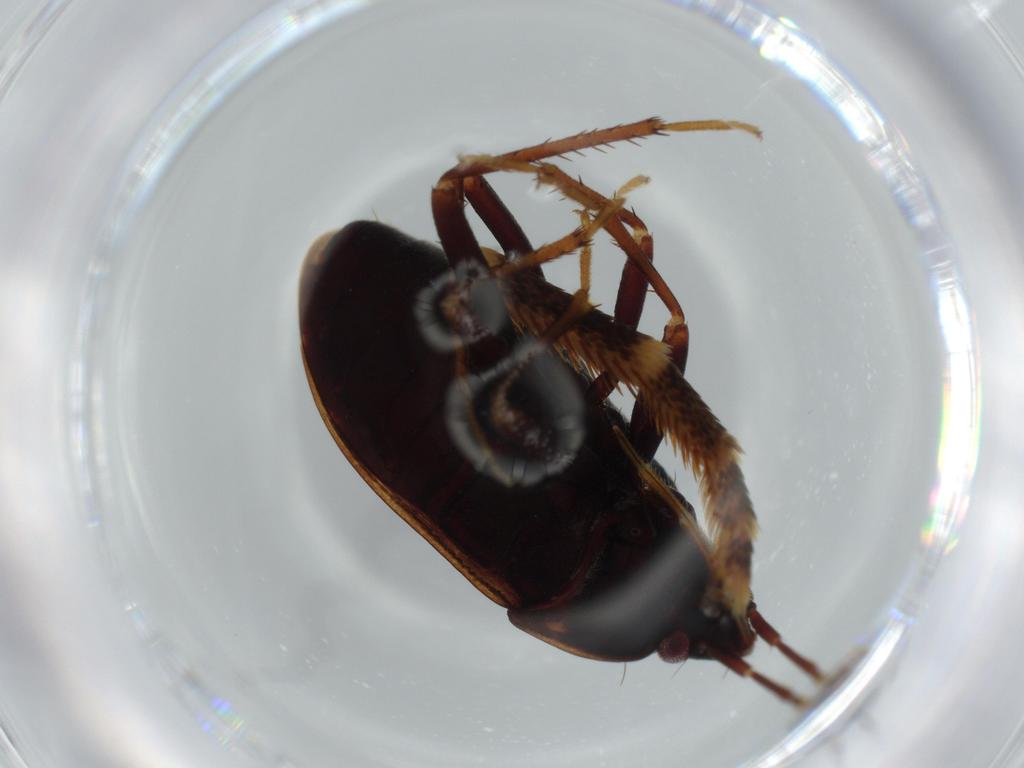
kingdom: Animalia
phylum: Arthropoda
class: Insecta
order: Hemiptera
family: Rhyparochromidae
